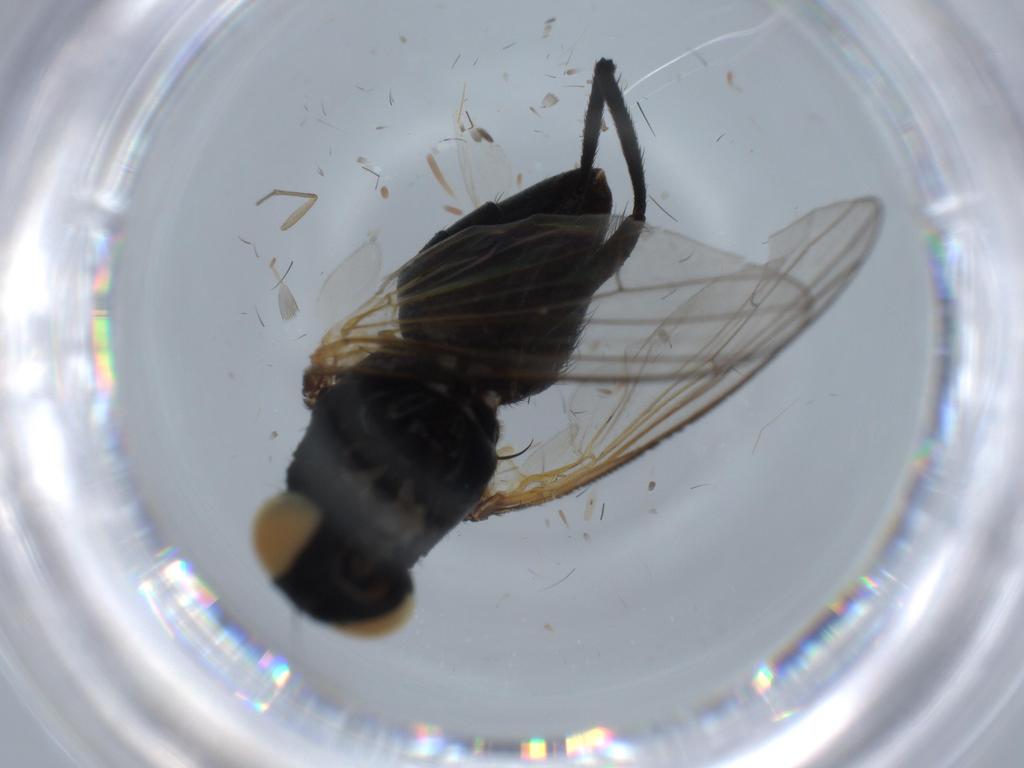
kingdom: Animalia
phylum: Arthropoda
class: Insecta
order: Diptera
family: Muscidae
